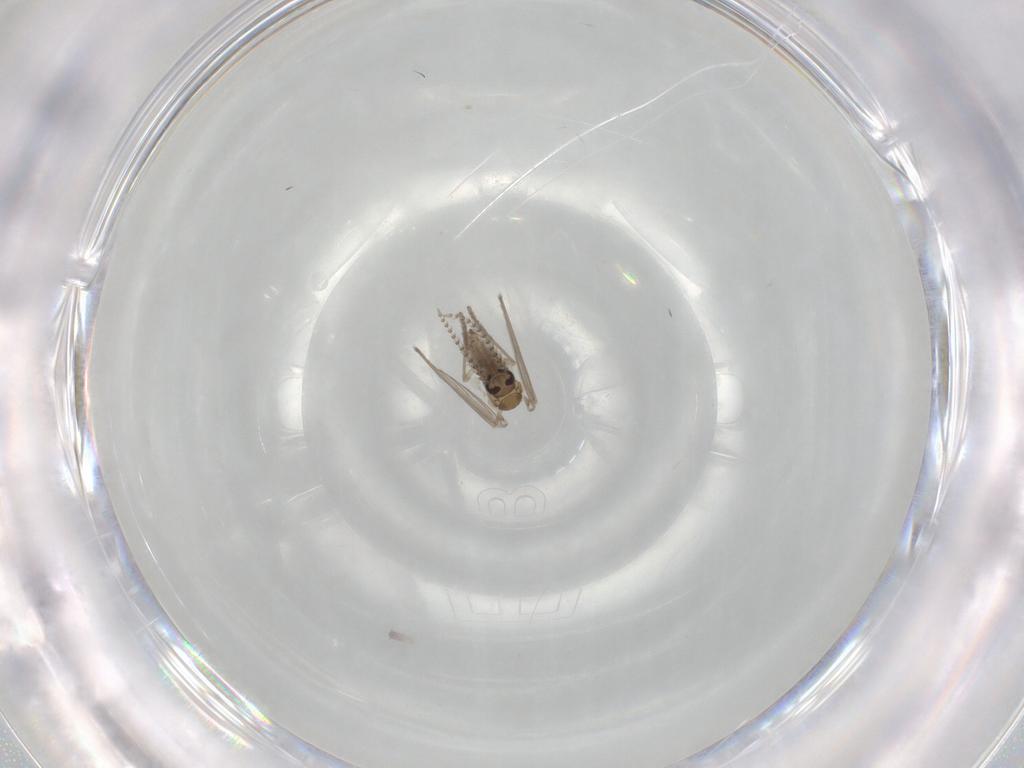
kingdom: Animalia
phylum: Arthropoda
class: Insecta
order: Diptera
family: Psychodidae
